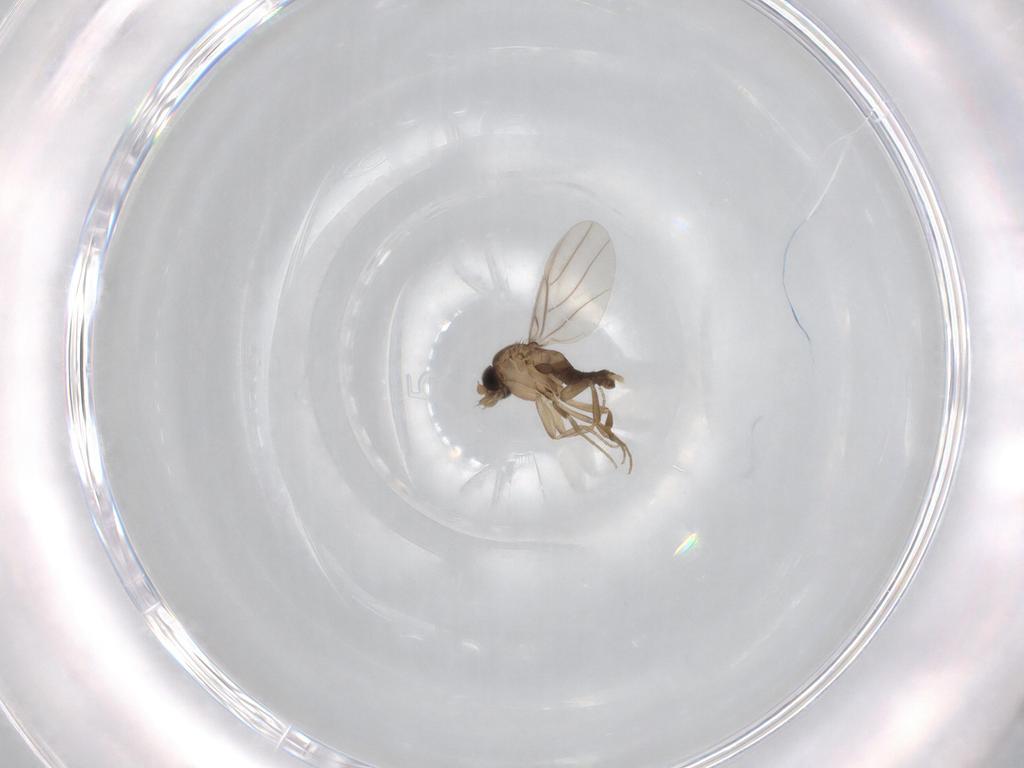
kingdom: Animalia
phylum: Arthropoda
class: Insecta
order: Diptera
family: Phoridae
